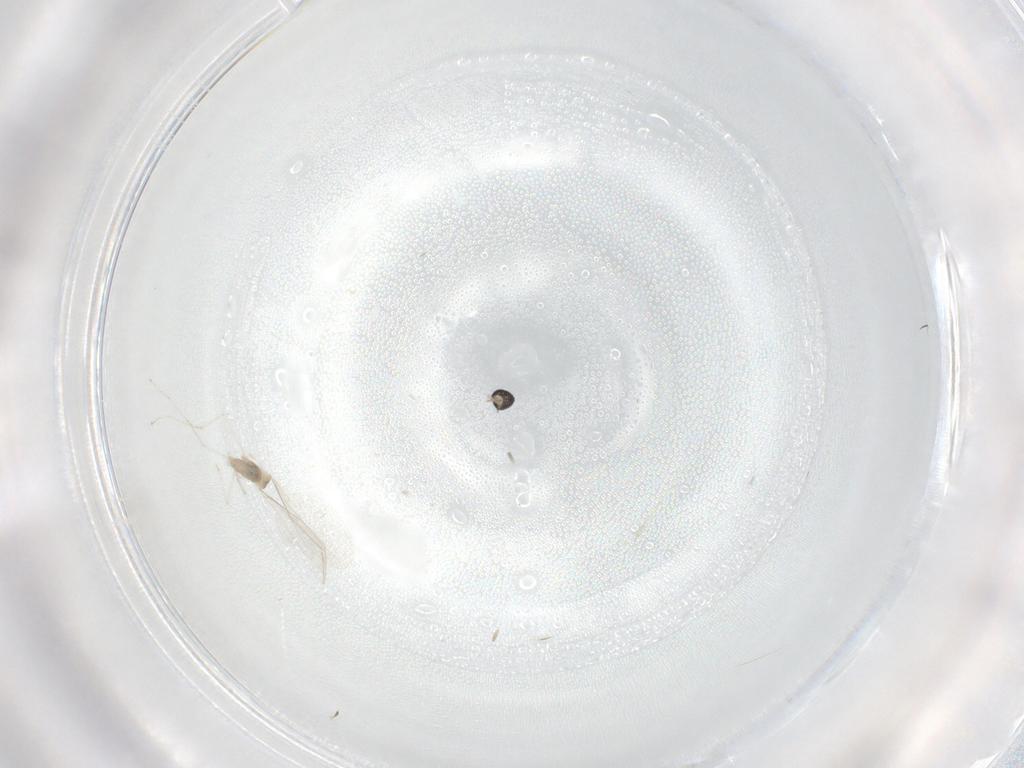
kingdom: Animalia
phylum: Arthropoda
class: Insecta
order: Diptera
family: Cecidomyiidae
